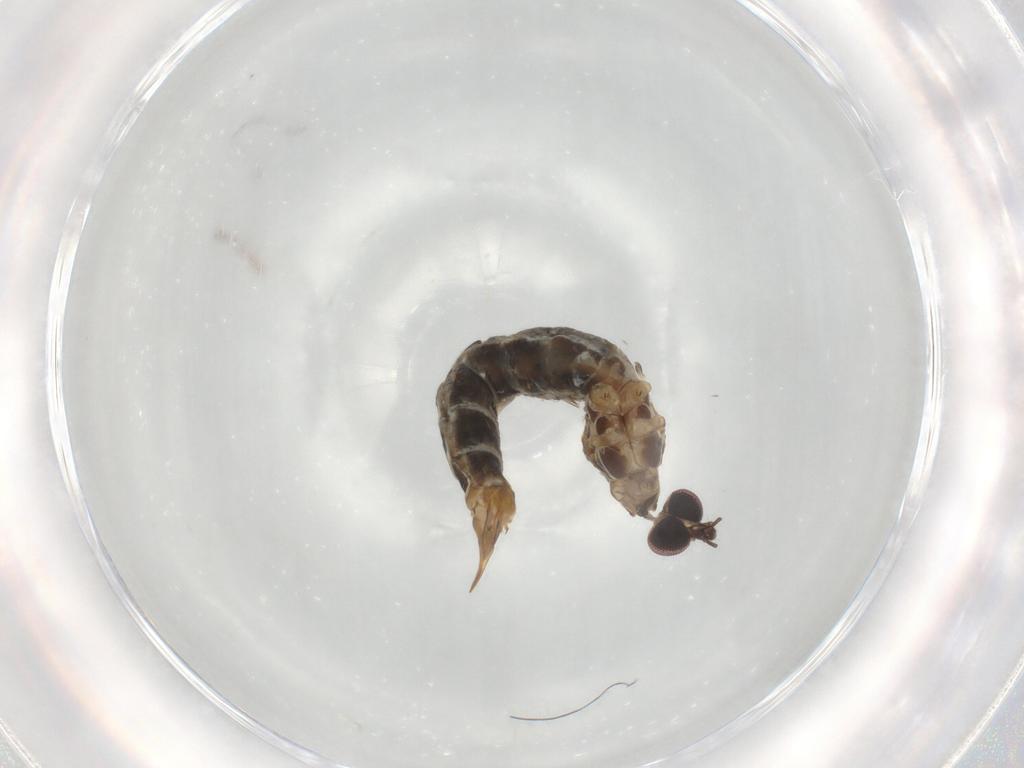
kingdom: Animalia
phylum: Arthropoda
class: Insecta
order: Diptera
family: Limoniidae
